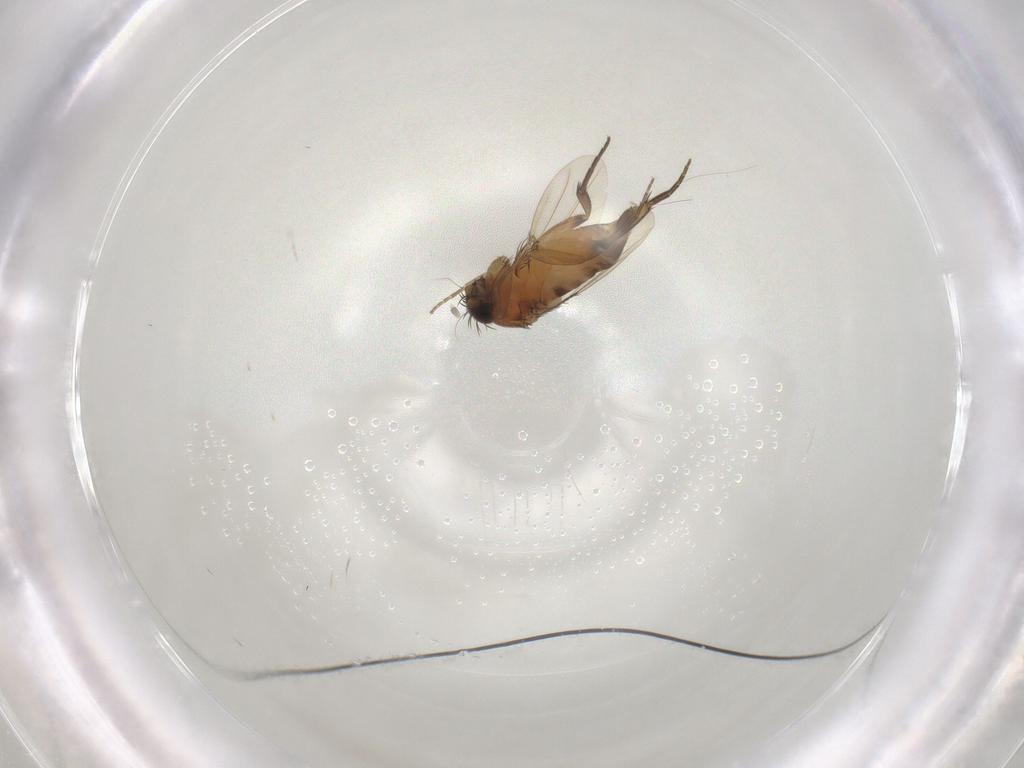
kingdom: Animalia
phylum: Arthropoda
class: Insecta
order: Diptera
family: Phoridae
